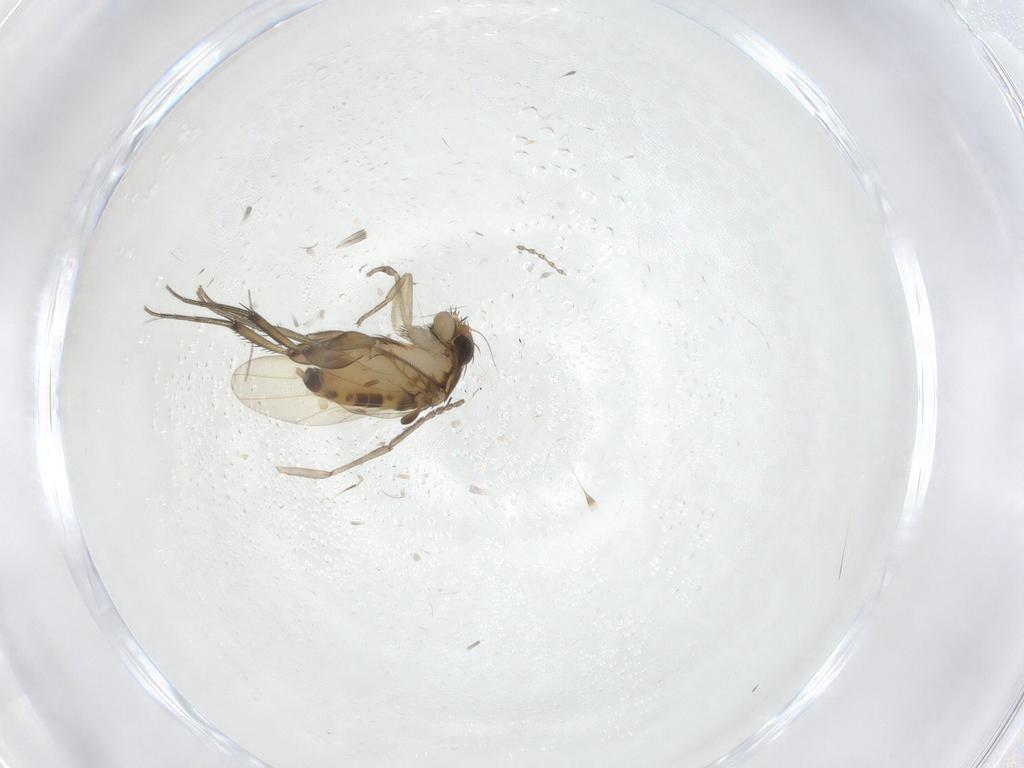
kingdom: Animalia
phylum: Arthropoda
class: Insecta
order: Diptera
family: Phoridae
